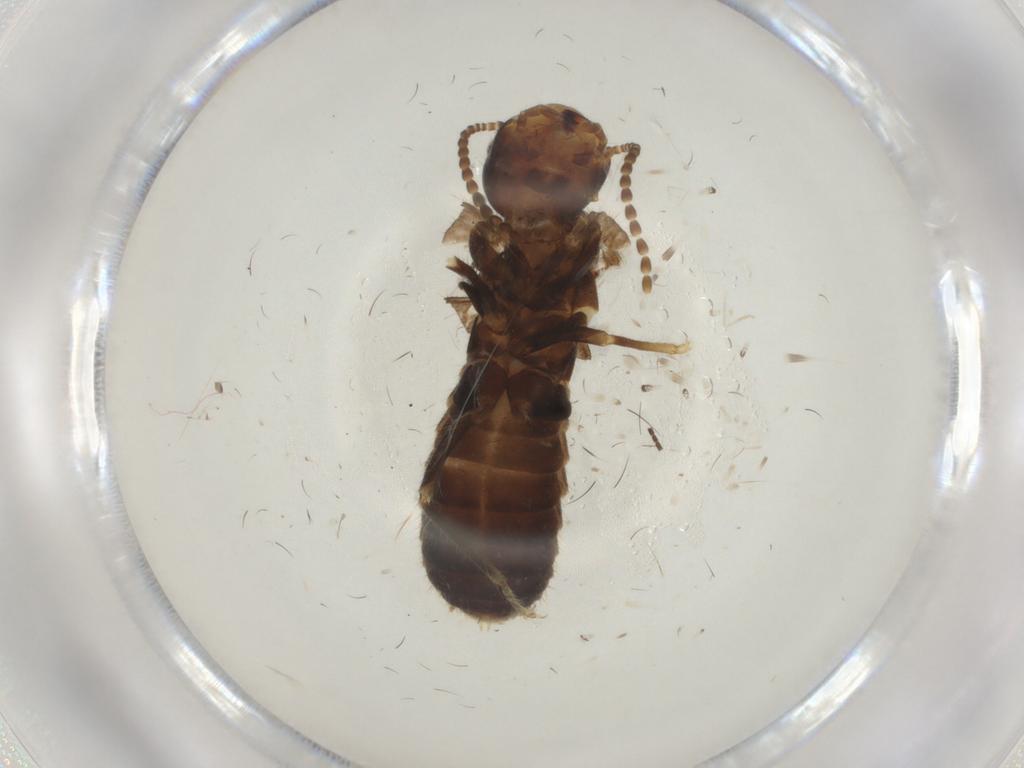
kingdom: Animalia
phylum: Arthropoda
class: Insecta
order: Blattodea
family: Rhinotermitidae
